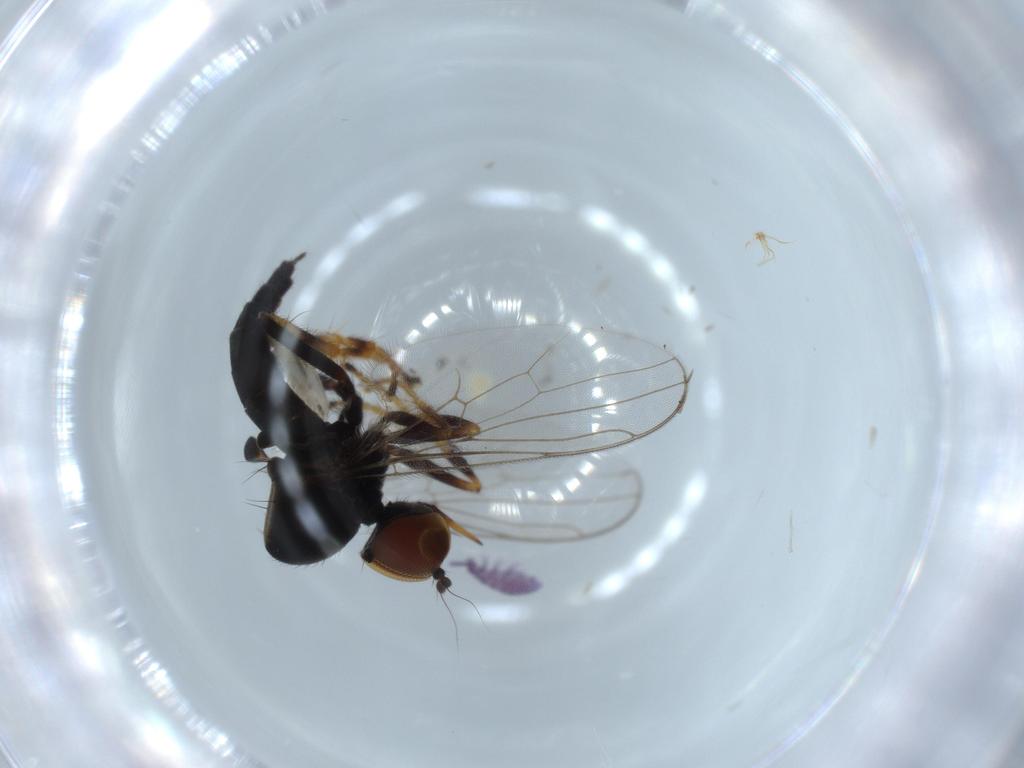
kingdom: Animalia
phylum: Arthropoda
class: Insecta
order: Diptera
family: Hybotidae
